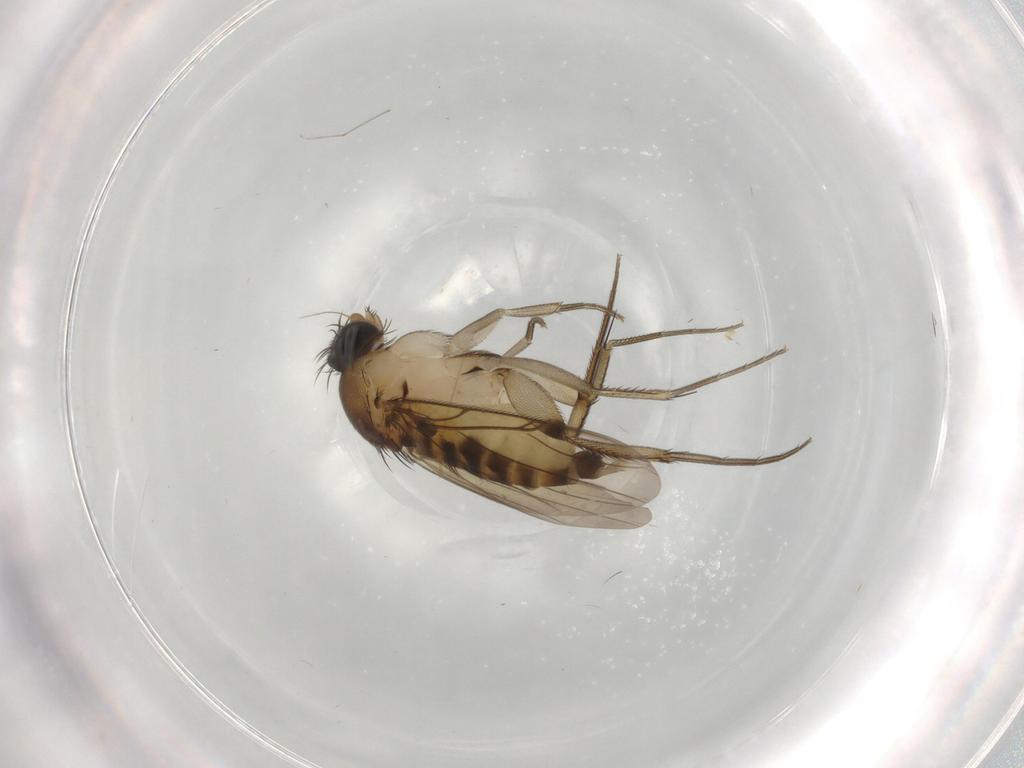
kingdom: Animalia
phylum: Arthropoda
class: Insecta
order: Diptera
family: Phoridae
